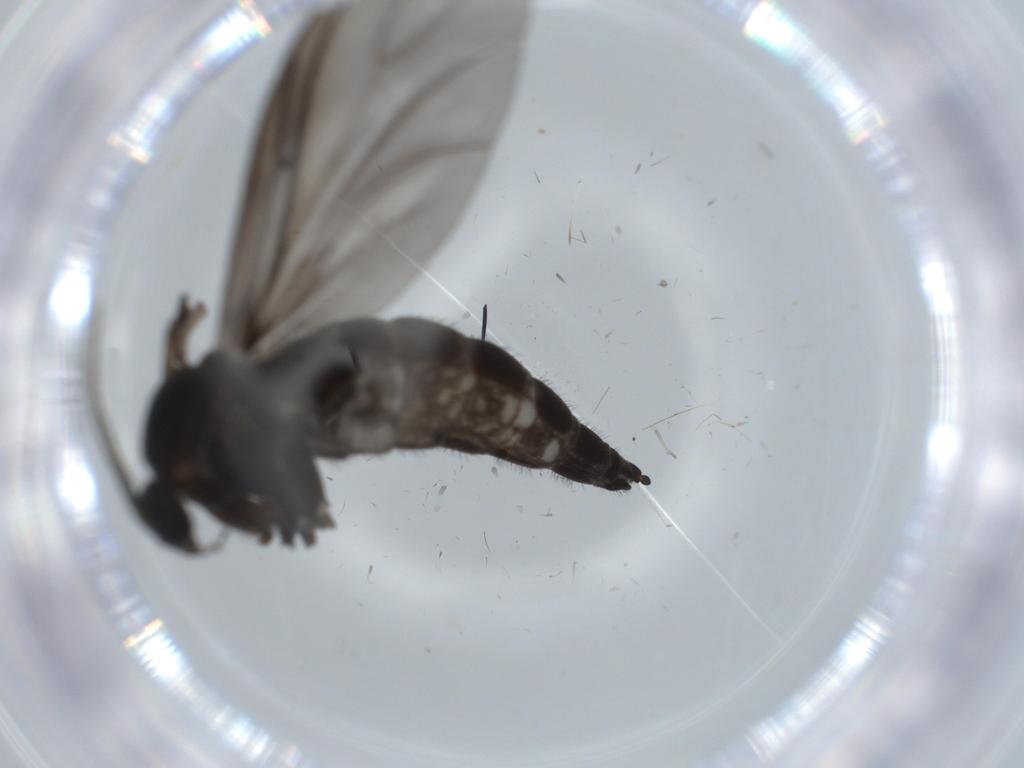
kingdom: Animalia
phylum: Arthropoda
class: Insecta
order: Diptera
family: Sciaridae
